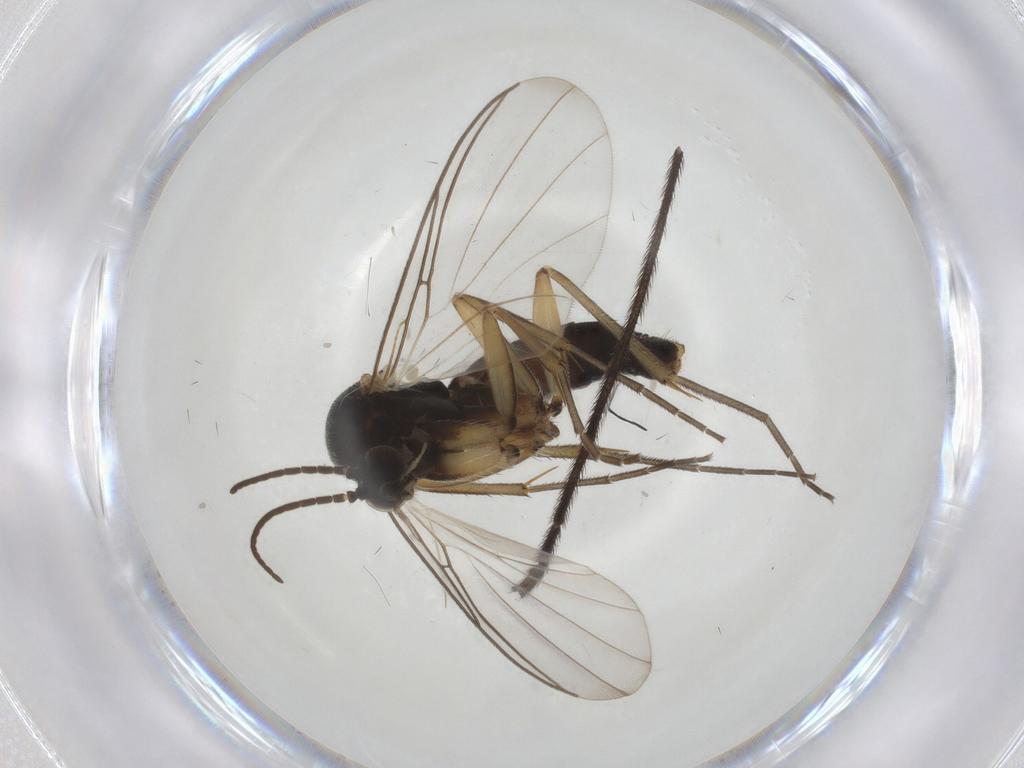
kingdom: Animalia
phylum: Arthropoda
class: Insecta
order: Diptera
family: Mycetophilidae
